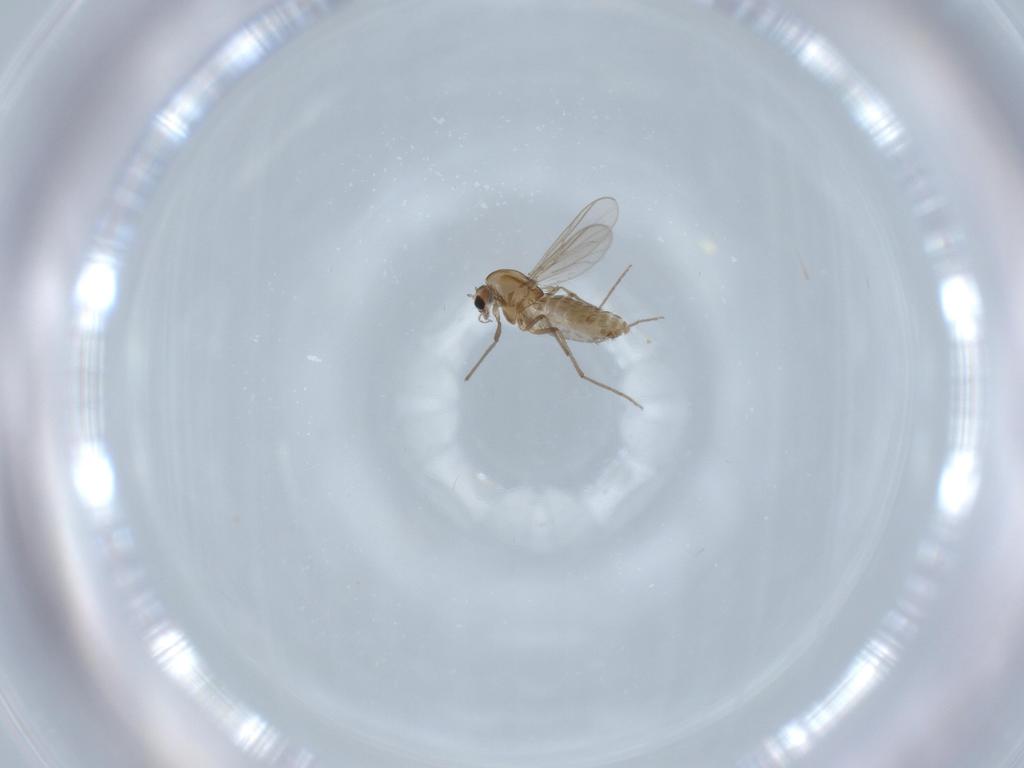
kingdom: Animalia
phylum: Arthropoda
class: Insecta
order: Diptera
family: Chironomidae
